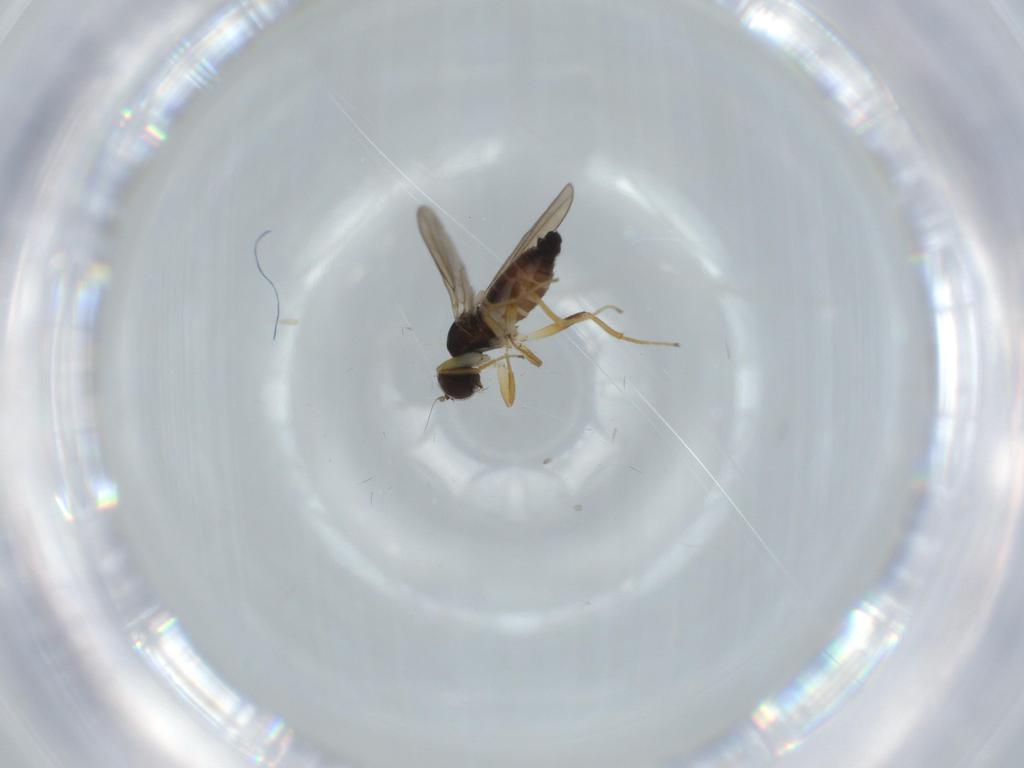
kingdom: Animalia
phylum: Arthropoda
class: Insecta
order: Diptera
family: Hybotidae
